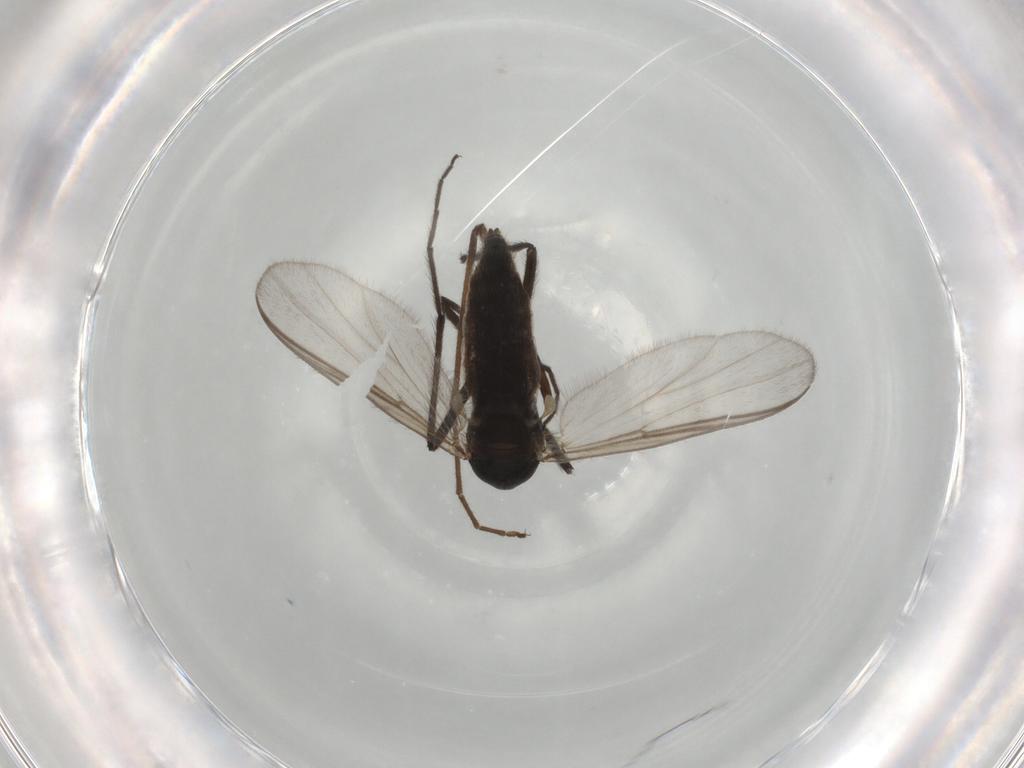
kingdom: Animalia
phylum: Arthropoda
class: Insecta
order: Diptera
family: Chironomidae
